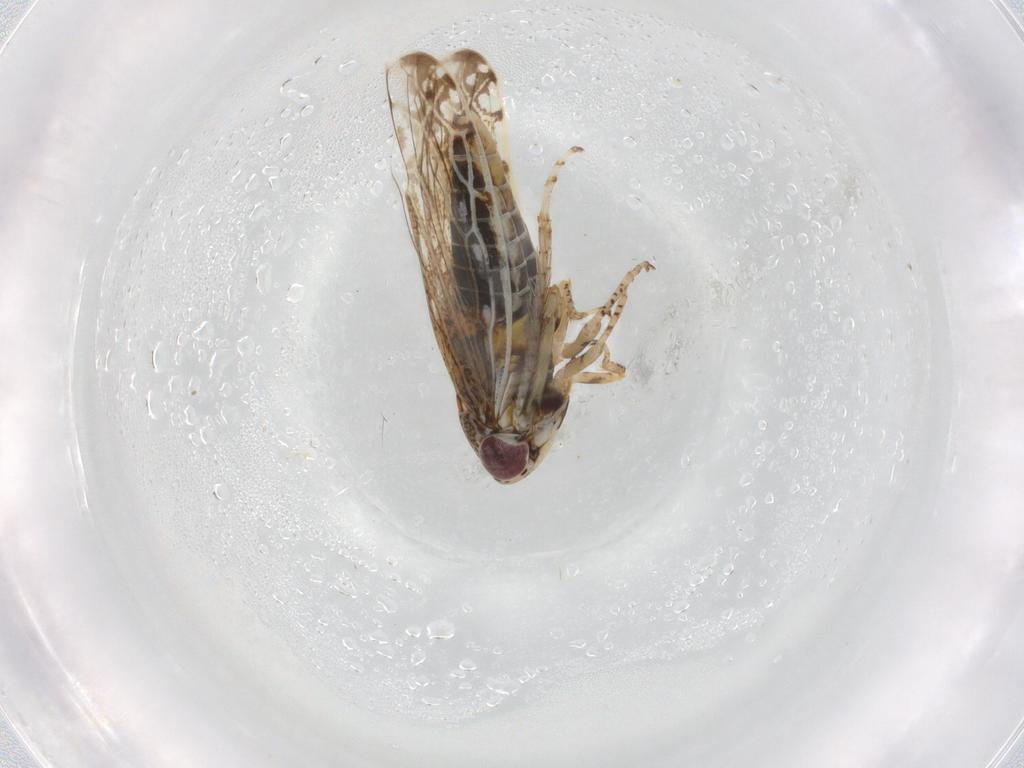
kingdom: Animalia
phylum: Arthropoda
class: Insecta
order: Hemiptera
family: Cicadellidae
